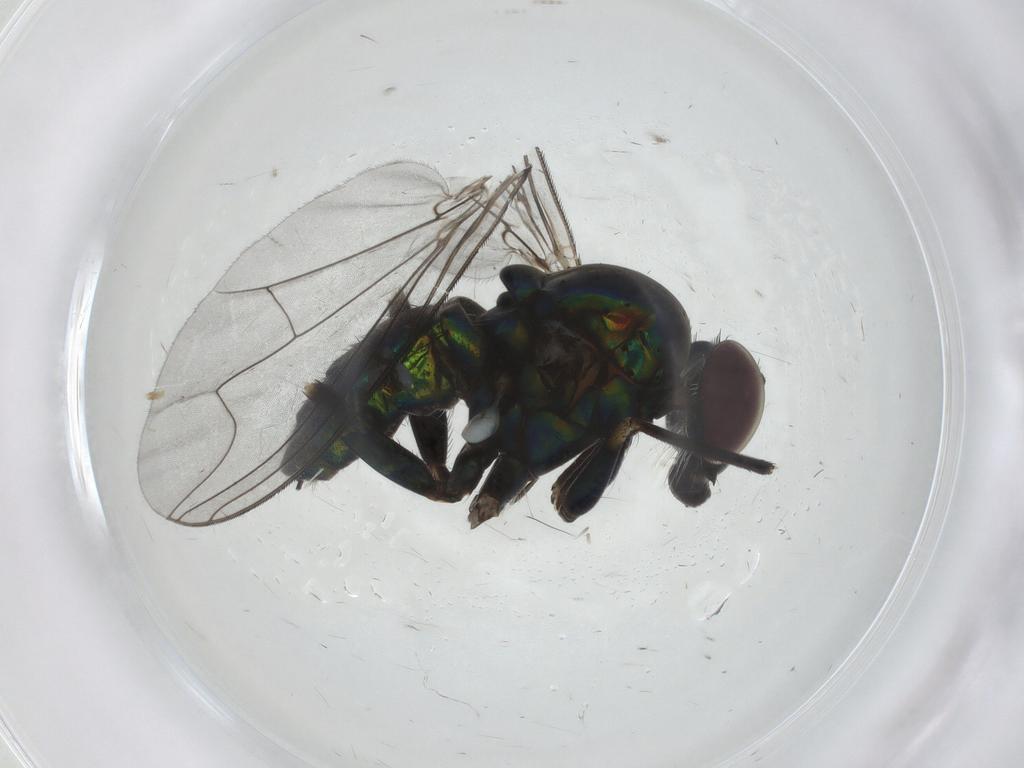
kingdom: Animalia
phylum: Arthropoda
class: Insecta
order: Diptera
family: Dolichopodidae
